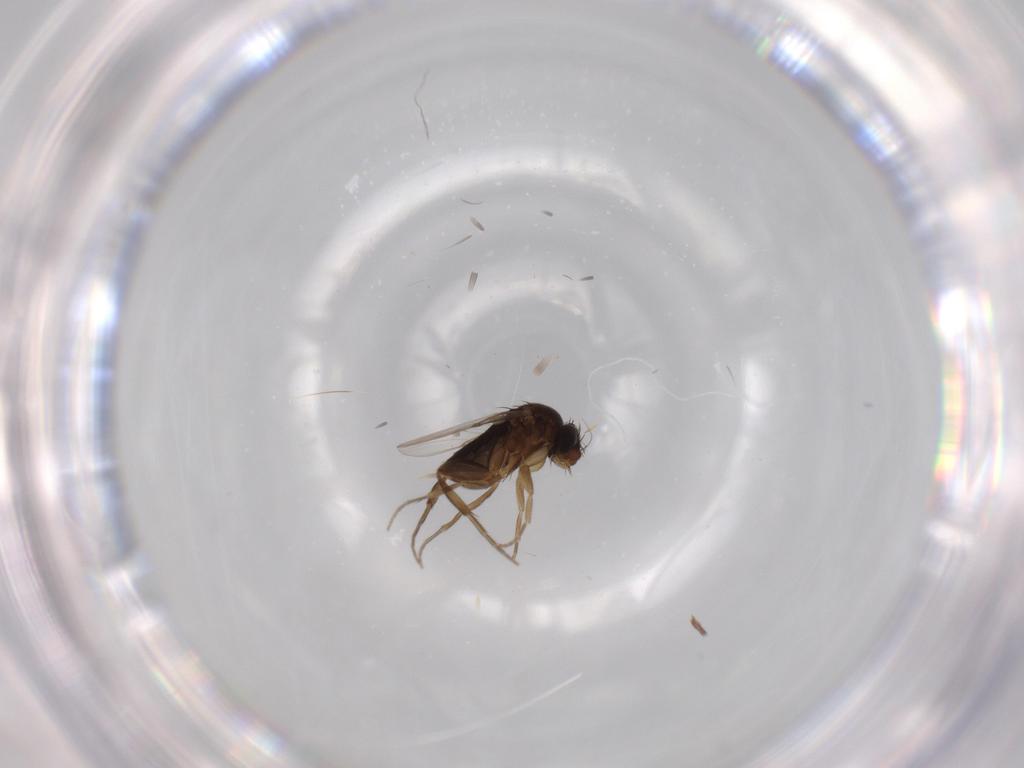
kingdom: Animalia
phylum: Arthropoda
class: Insecta
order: Diptera
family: Phoridae
